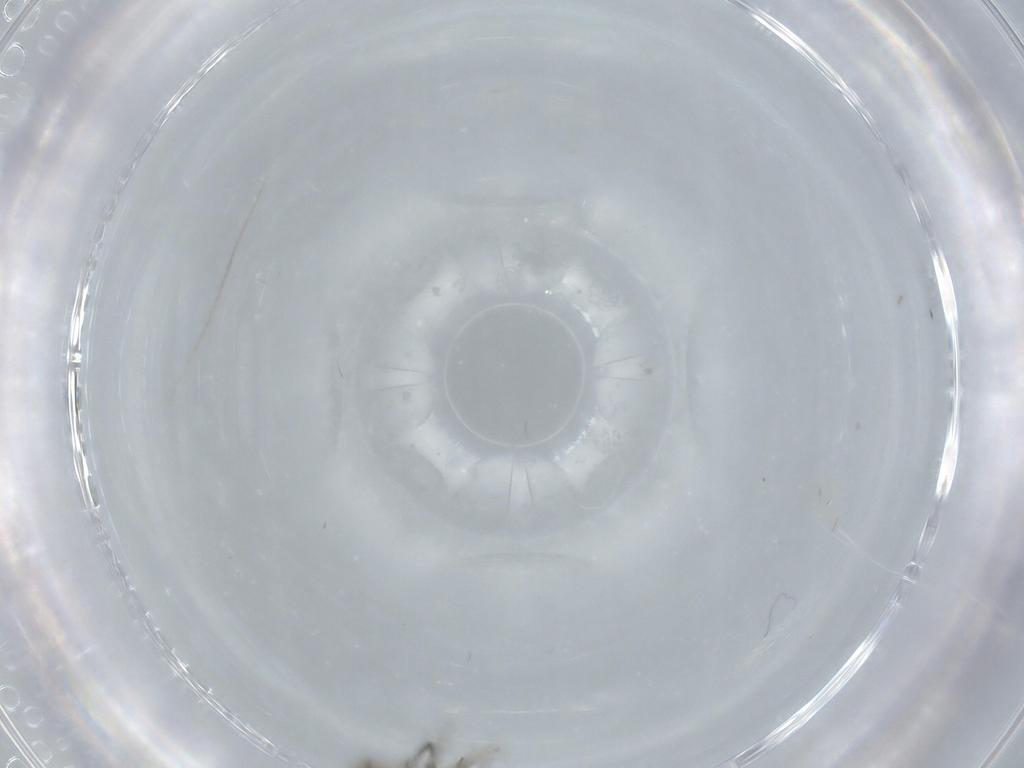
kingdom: Animalia
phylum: Arthropoda
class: Insecta
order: Diptera
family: Chironomidae
